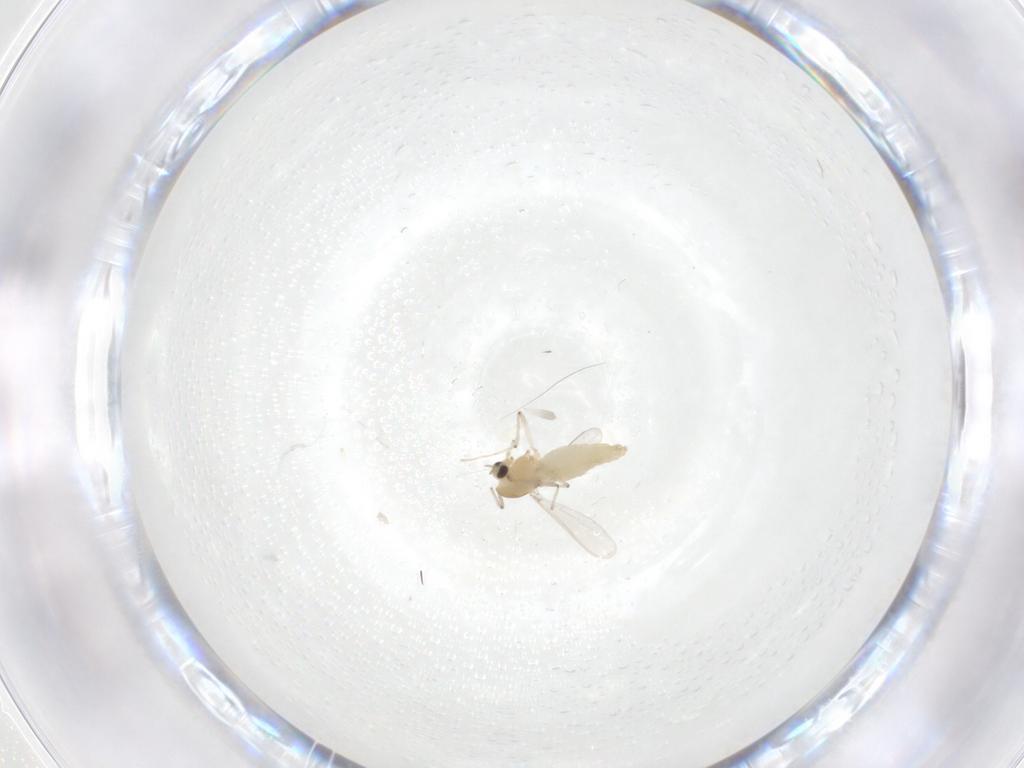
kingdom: Animalia
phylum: Arthropoda
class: Insecta
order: Diptera
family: Chironomidae
